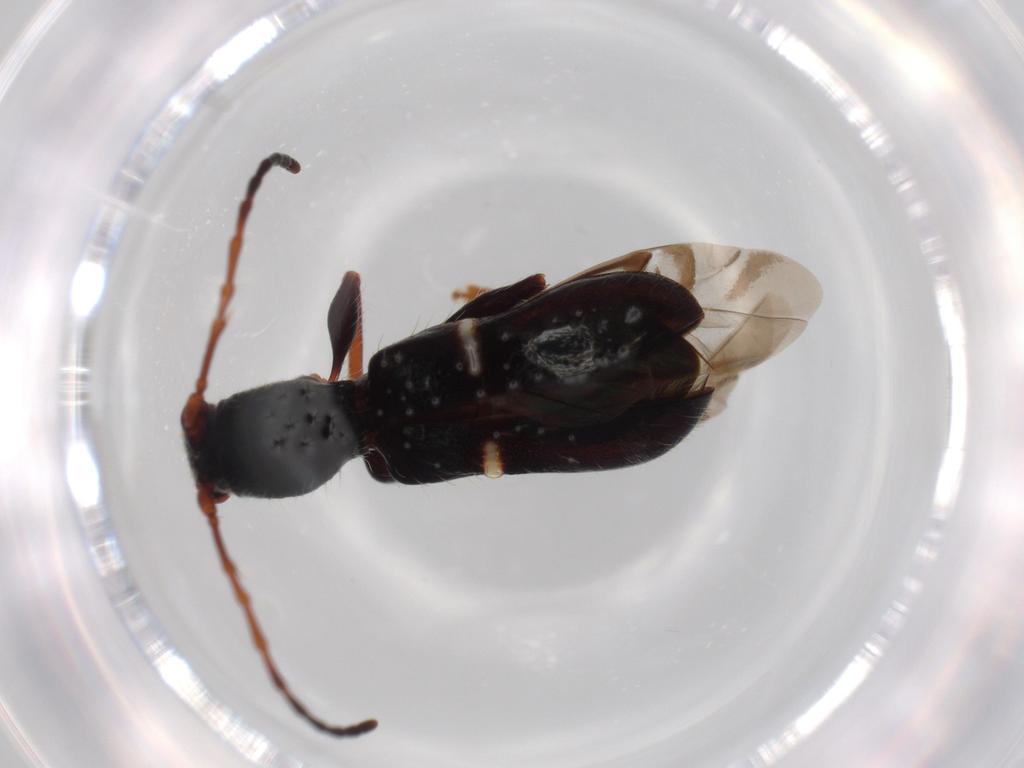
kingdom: Animalia
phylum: Arthropoda
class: Insecta
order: Coleoptera
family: Cerambycidae
